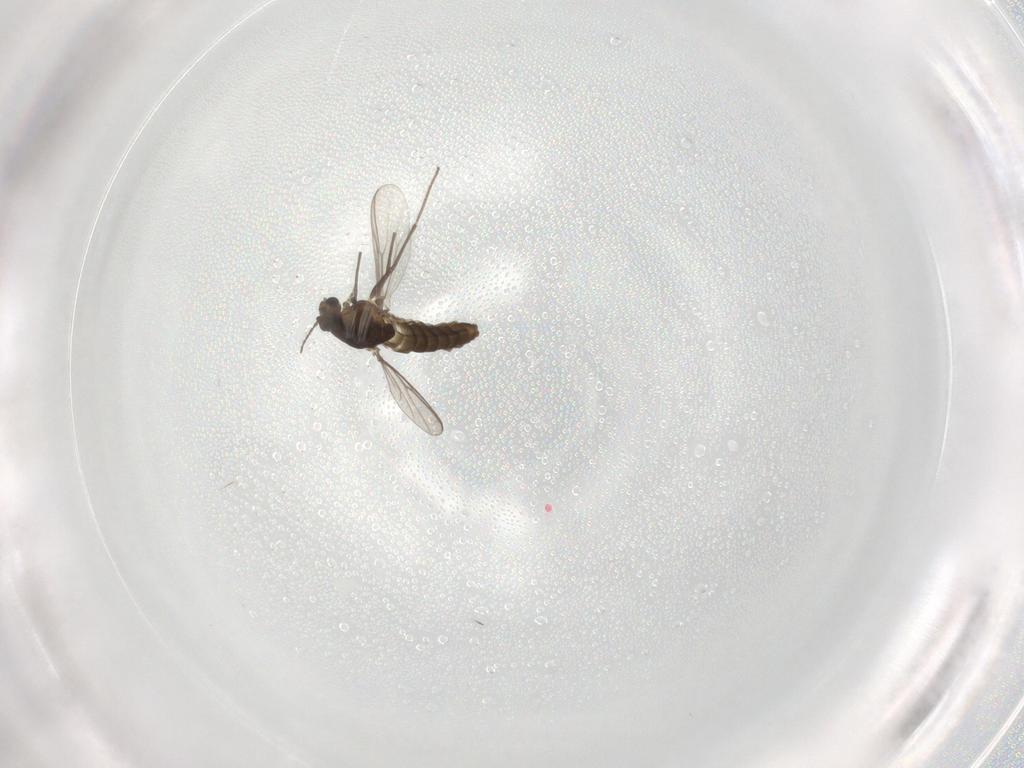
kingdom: Animalia
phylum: Arthropoda
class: Insecta
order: Diptera
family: Chironomidae
